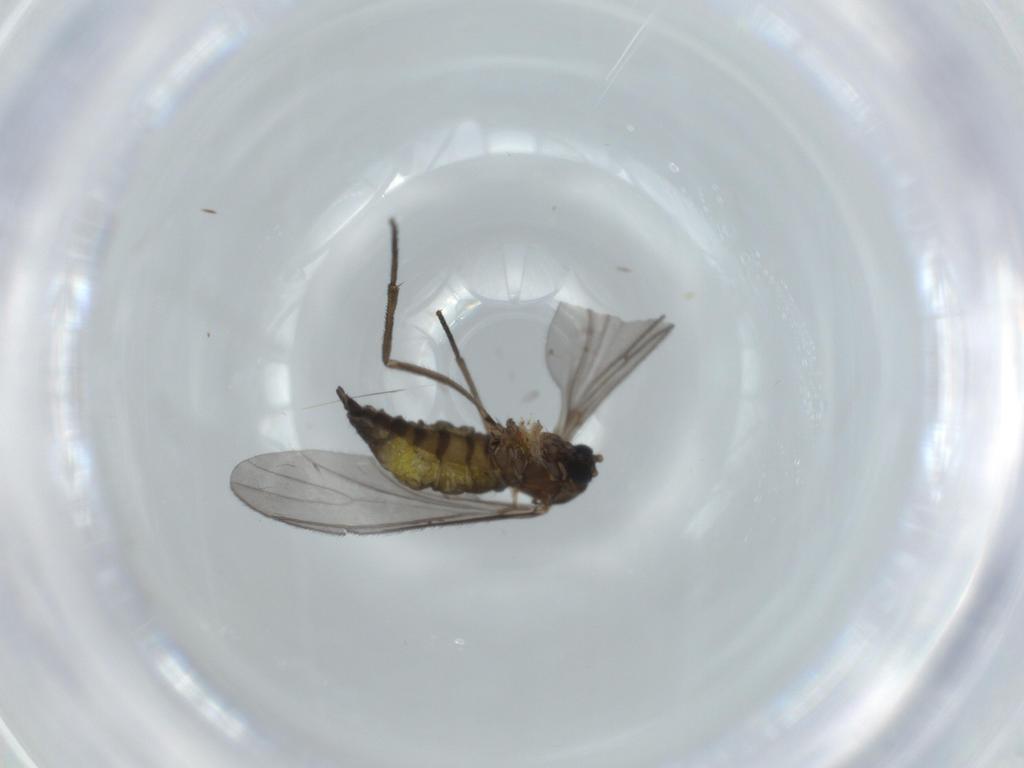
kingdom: Animalia
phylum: Arthropoda
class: Insecta
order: Diptera
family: Sciaridae
